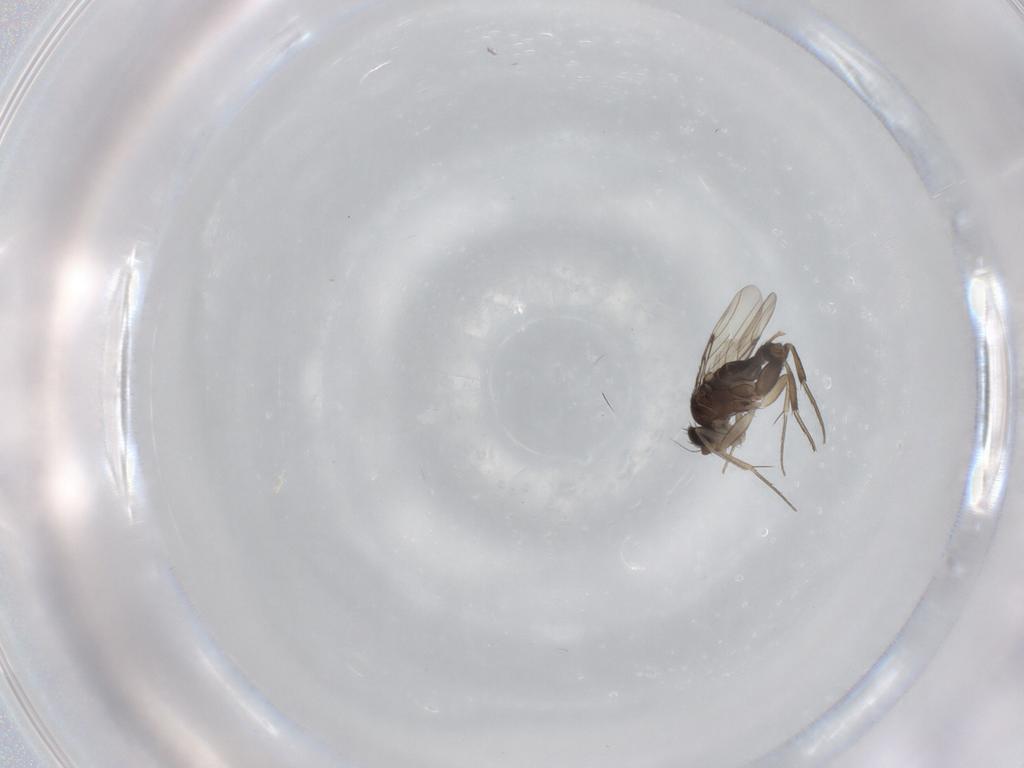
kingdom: Animalia
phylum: Arthropoda
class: Insecta
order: Diptera
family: Phoridae
